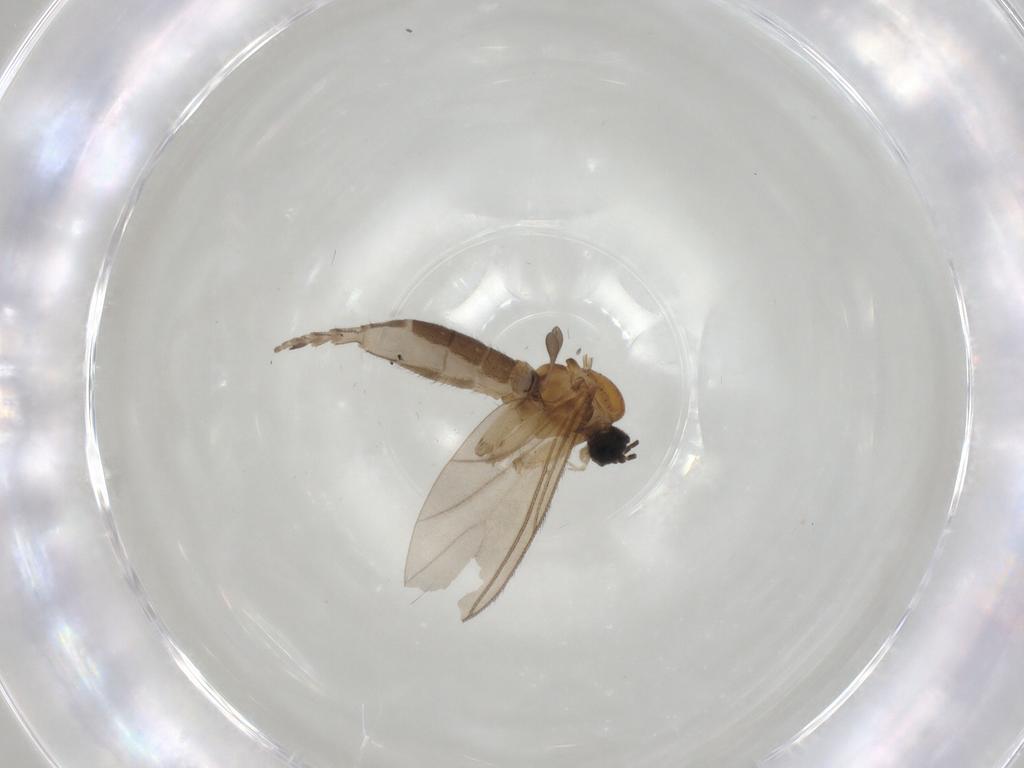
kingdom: Animalia
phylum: Arthropoda
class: Insecta
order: Diptera
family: Sciaridae
